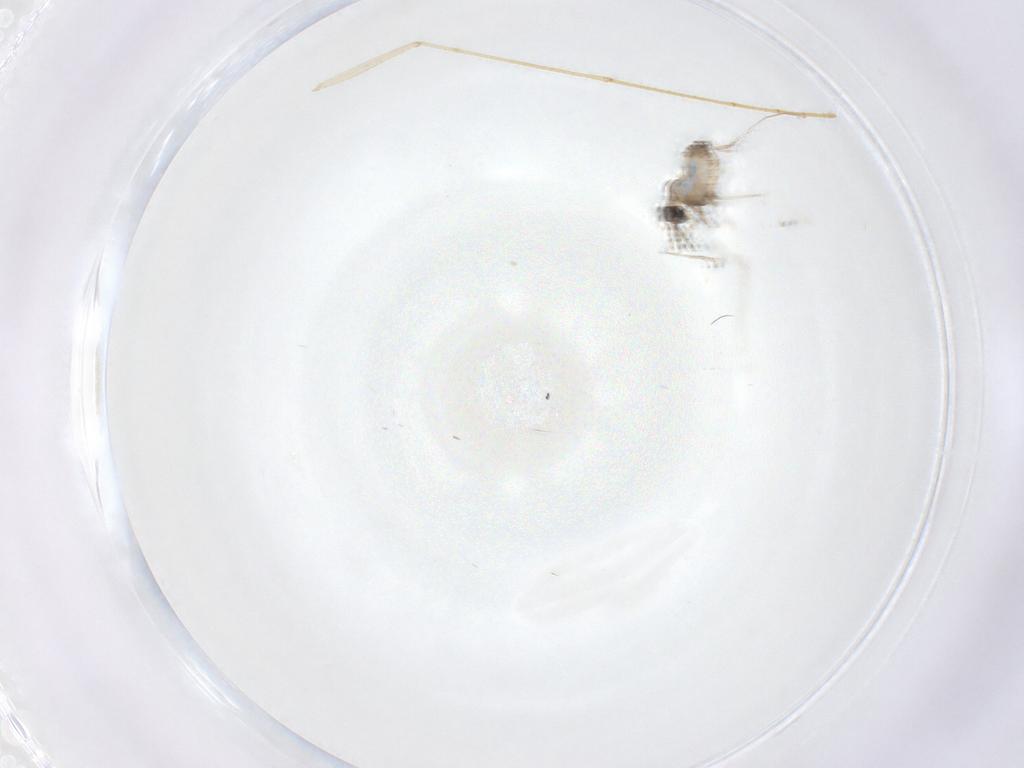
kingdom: Animalia
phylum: Arthropoda
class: Insecta
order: Diptera
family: Cecidomyiidae
